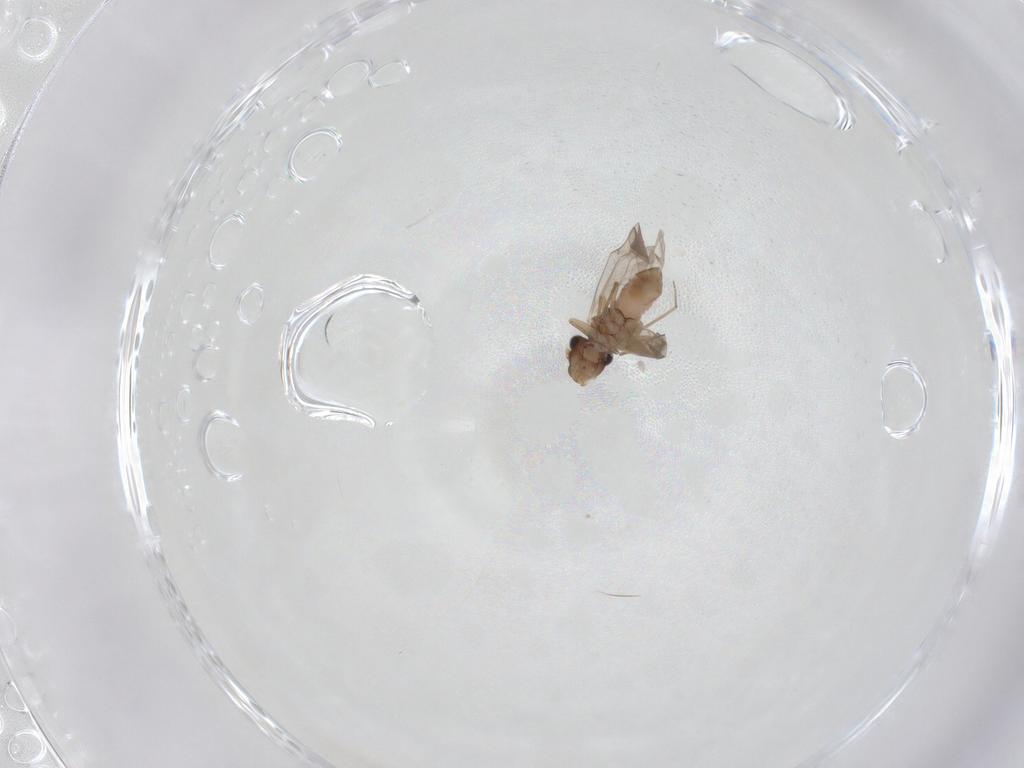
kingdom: Animalia
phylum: Arthropoda
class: Insecta
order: Psocodea
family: Lepidopsocidae
